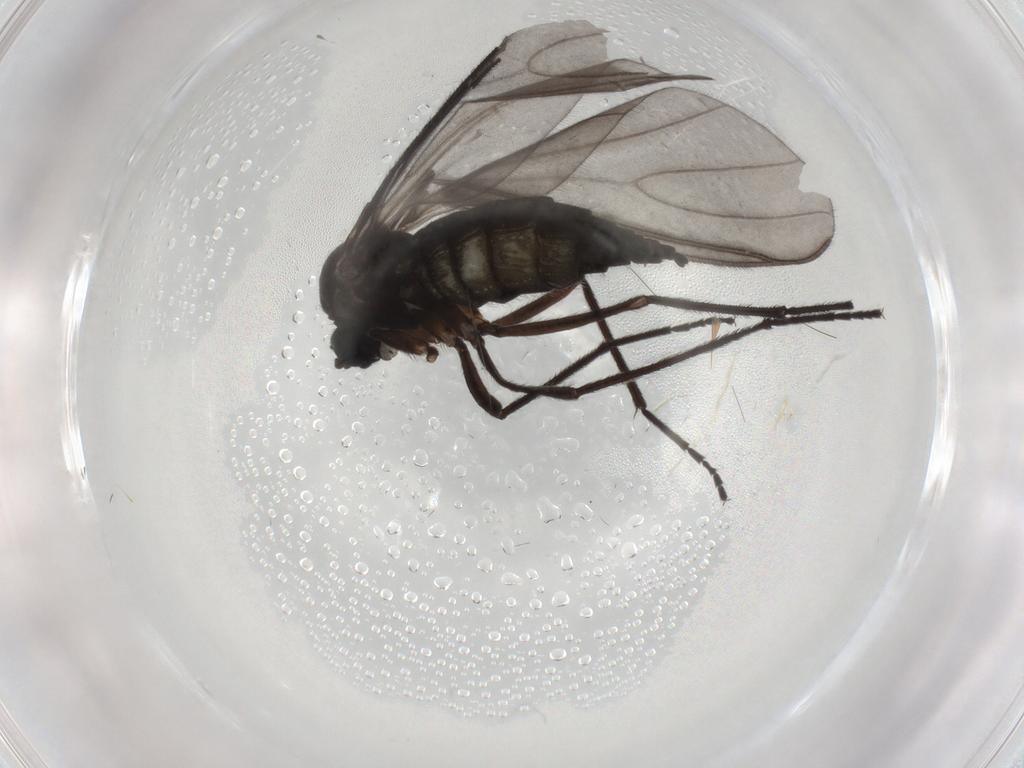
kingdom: Animalia
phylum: Arthropoda
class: Insecta
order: Diptera
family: Sciaridae
